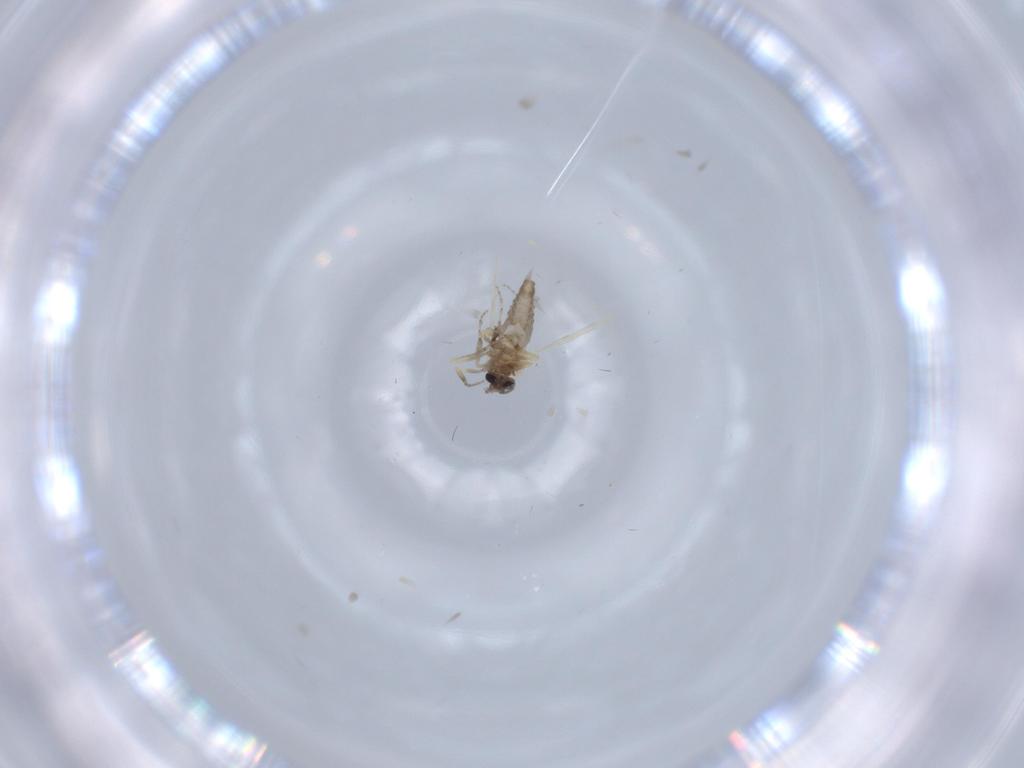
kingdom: Animalia
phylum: Arthropoda
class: Insecta
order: Diptera
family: Ceratopogonidae
